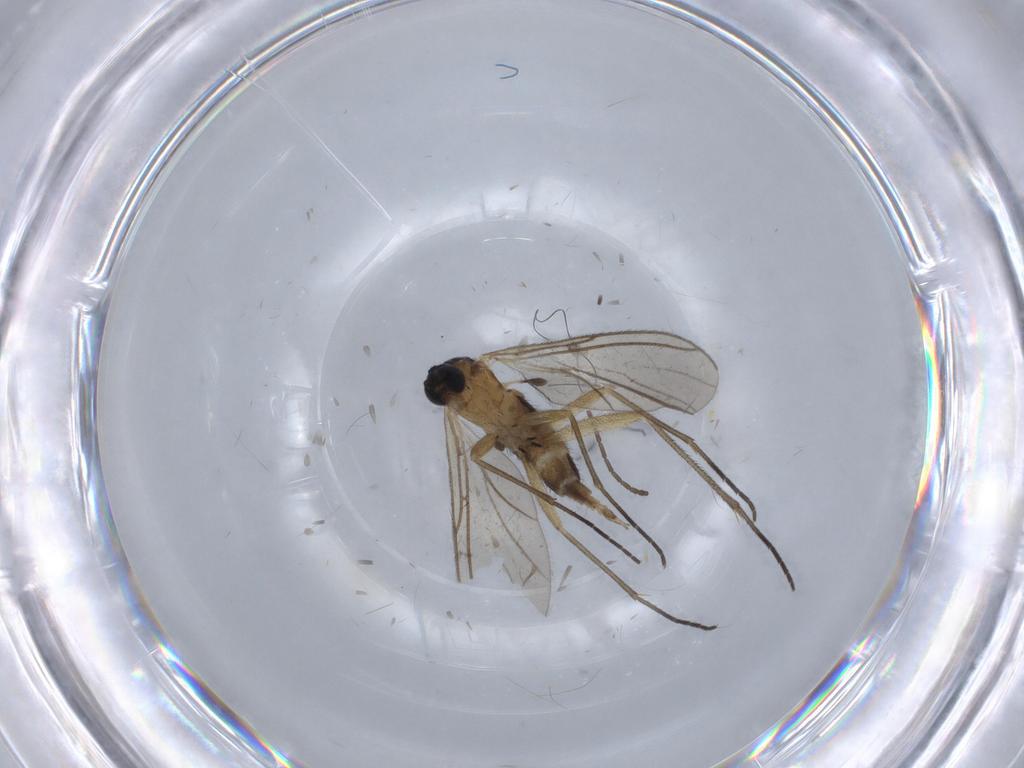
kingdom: Animalia
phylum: Arthropoda
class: Insecta
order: Diptera
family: Chironomidae
